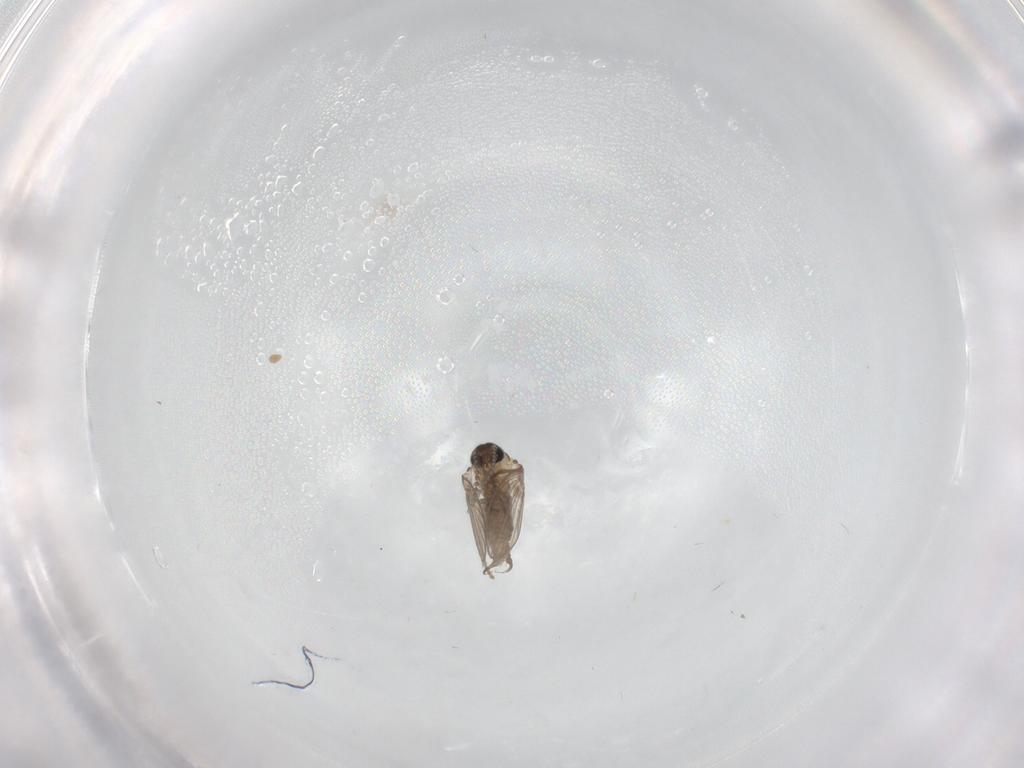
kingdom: Animalia
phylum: Arthropoda
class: Insecta
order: Diptera
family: Psychodidae
